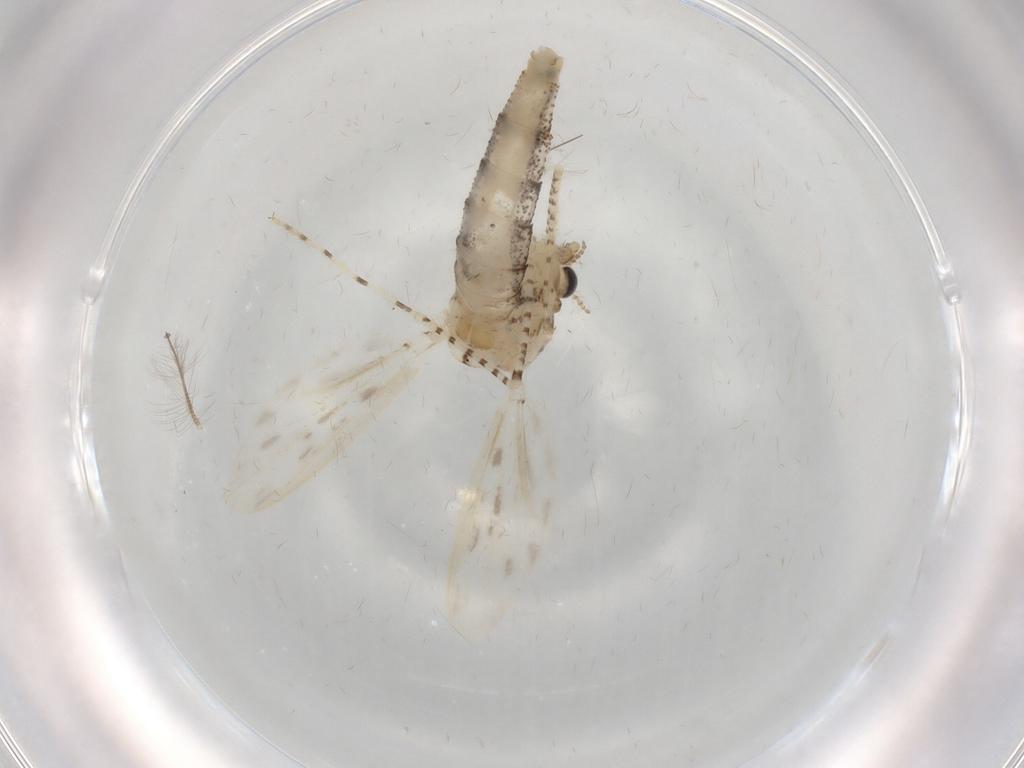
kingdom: Animalia
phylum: Arthropoda
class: Insecta
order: Diptera
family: Chaoboridae
